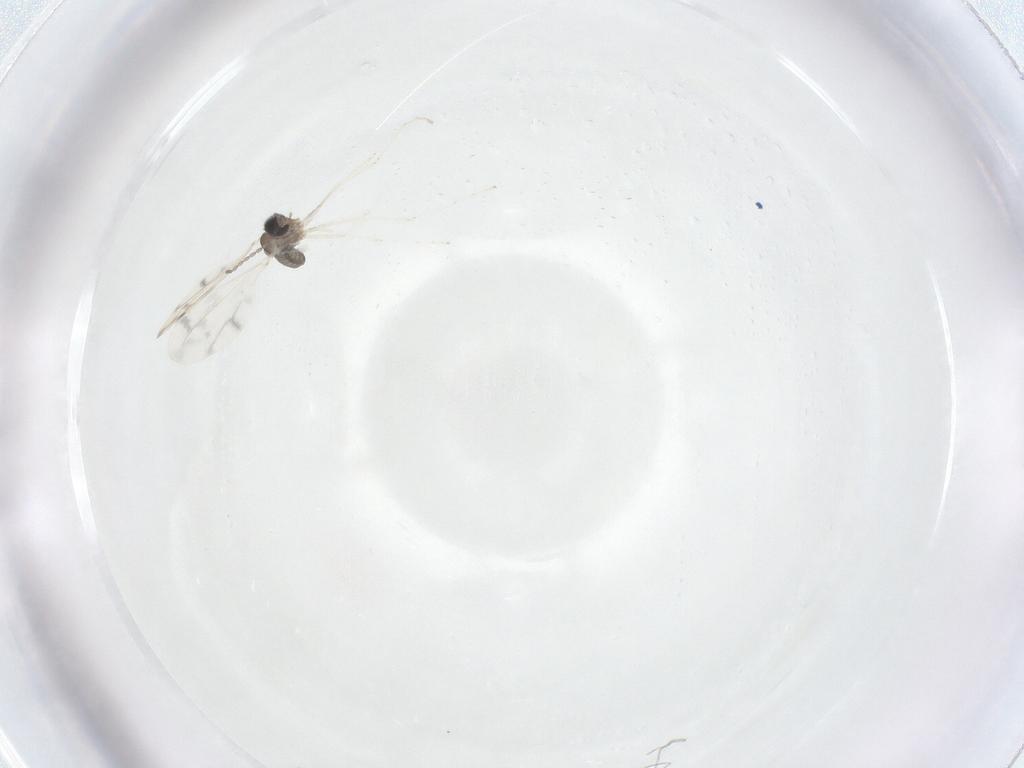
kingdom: Animalia
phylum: Arthropoda
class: Insecta
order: Diptera
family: Cecidomyiidae
